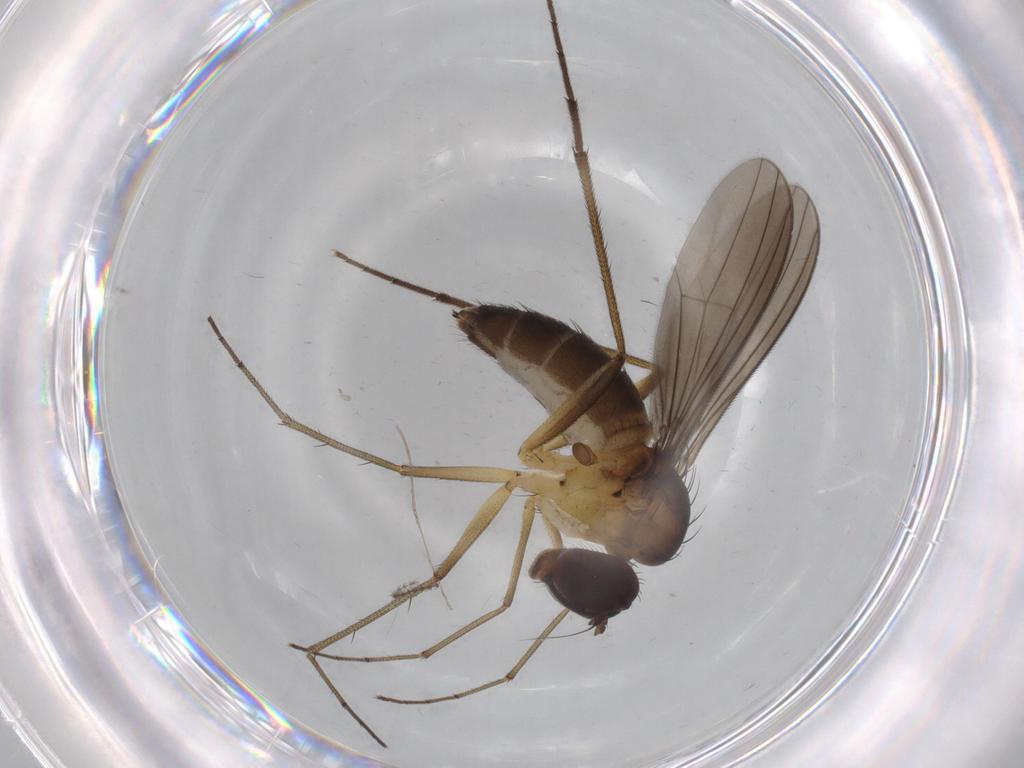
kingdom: Animalia
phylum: Arthropoda
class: Insecta
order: Diptera
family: Dolichopodidae
